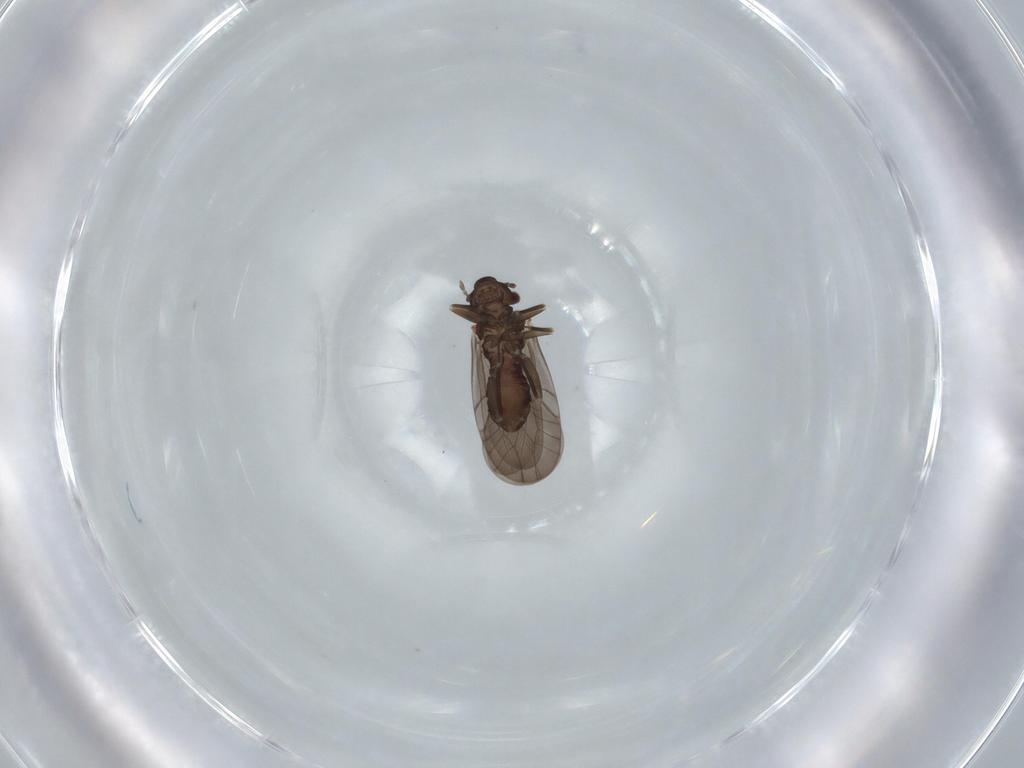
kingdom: Animalia
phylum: Arthropoda
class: Insecta
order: Psocodea
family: Lepidopsocidae
